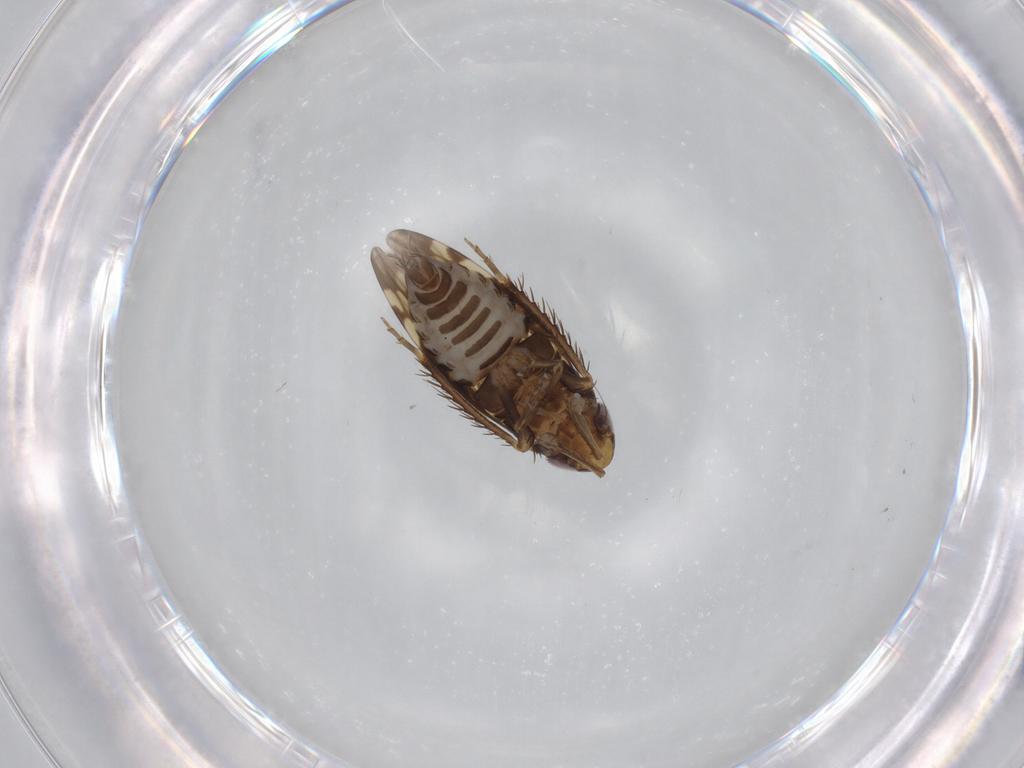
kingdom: Animalia
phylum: Arthropoda
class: Insecta
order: Hemiptera
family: Cicadellidae
